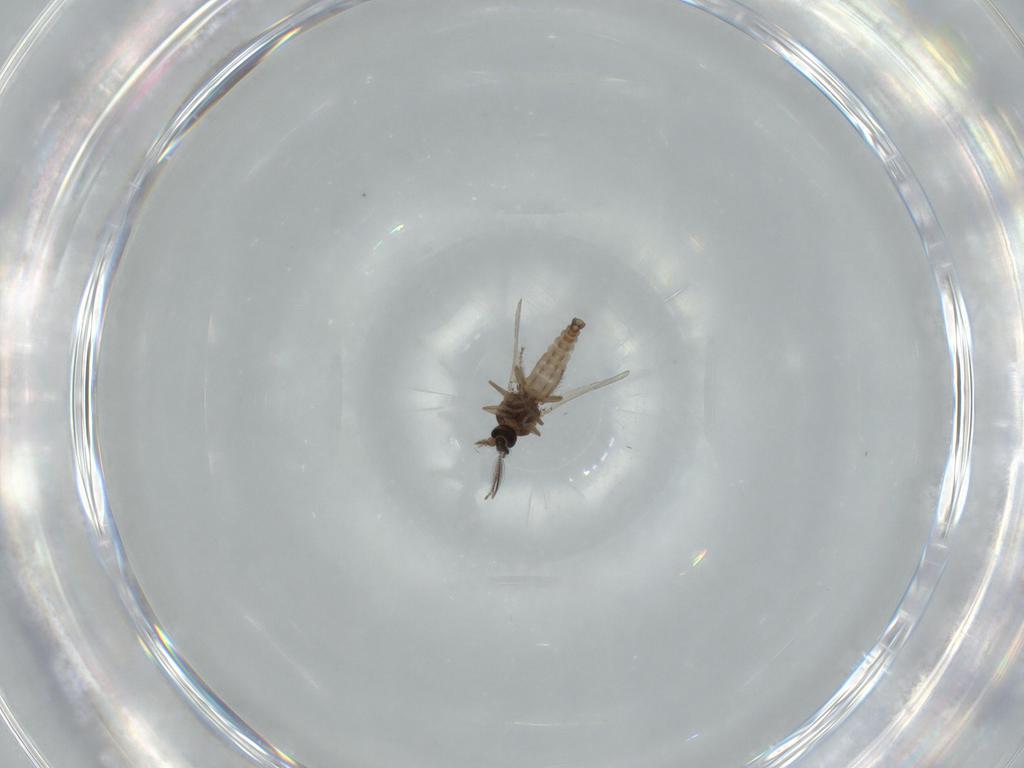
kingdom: Animalia
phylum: Arthropoda
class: Insecta
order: Diptera
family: Ceratopogonidae
